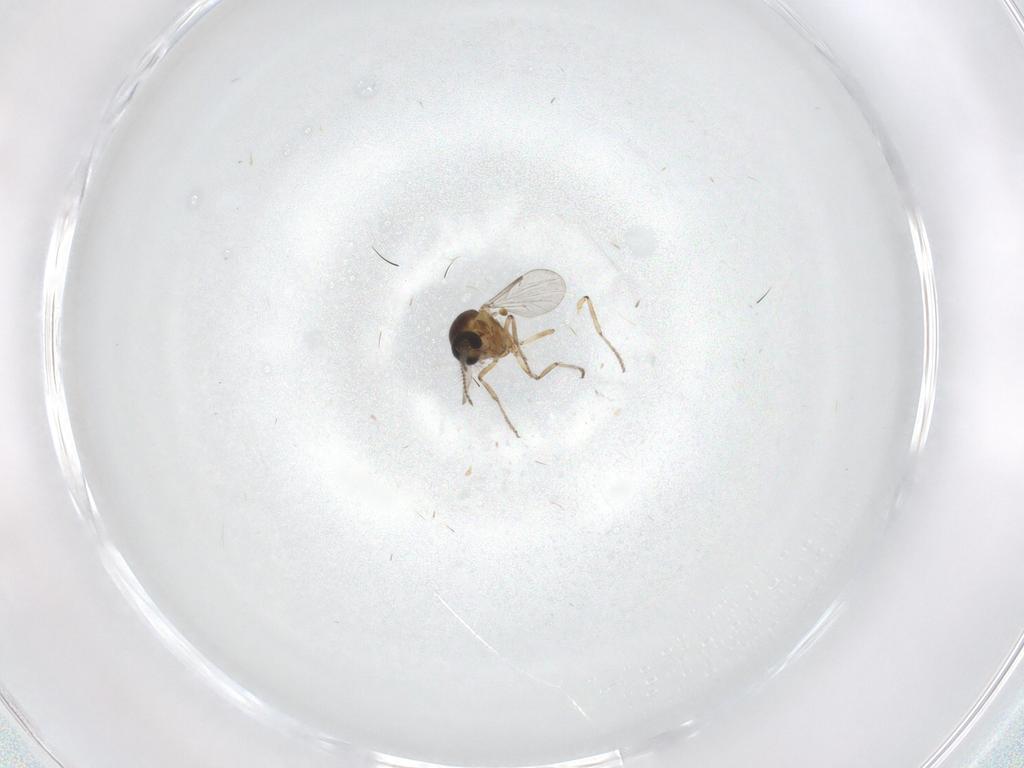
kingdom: Animalia
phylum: Arthropoda
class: Insecta
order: Diptera
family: Ceratopogonidae
